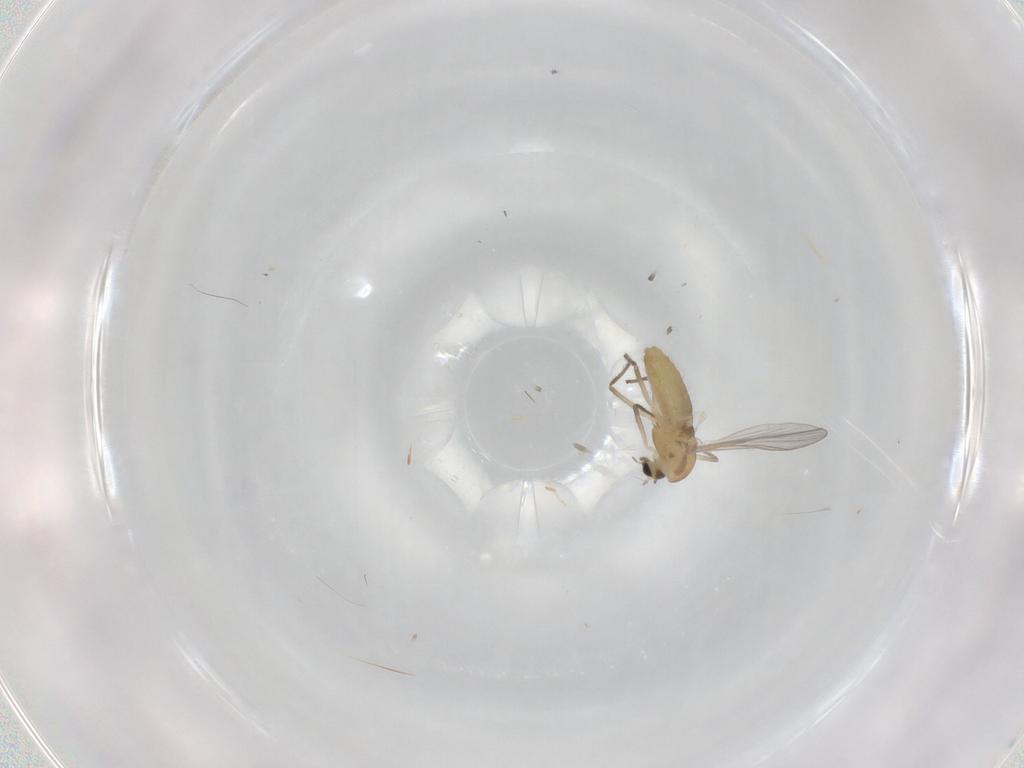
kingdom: Animalia
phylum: Arthropoda
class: Insecta
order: Diptera
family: Chironomidae
